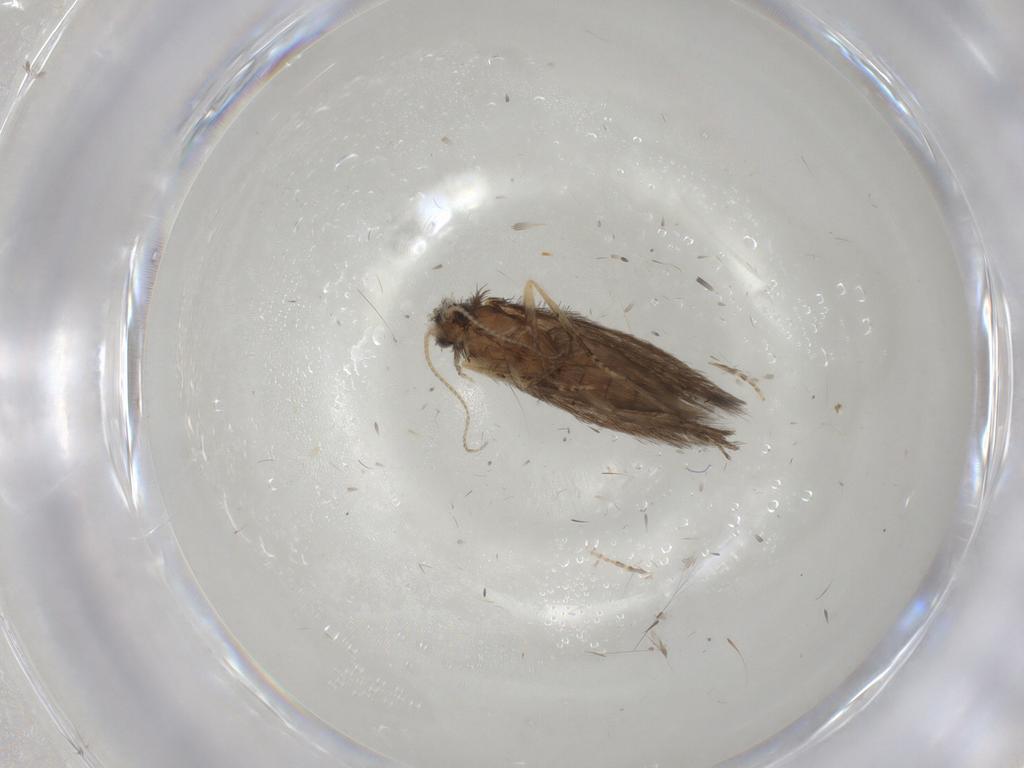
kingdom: Animalia
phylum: Arthropoda
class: Insecta
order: Trichoptera
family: Hydroptilidae
